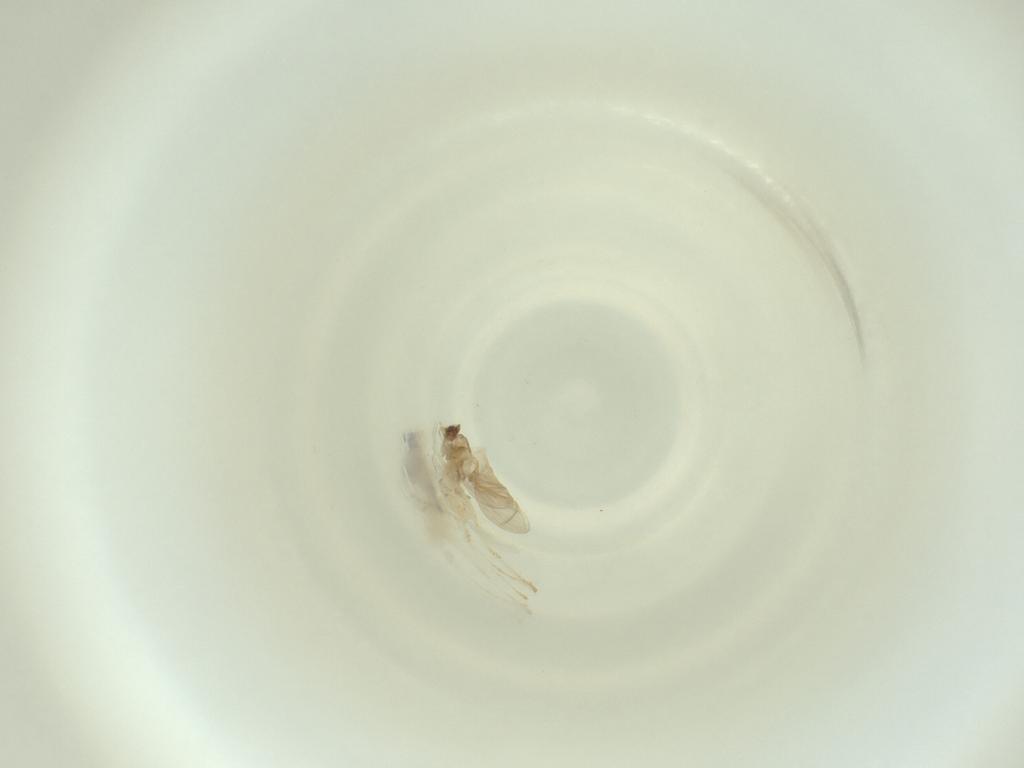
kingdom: Animalia
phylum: Arthropoda
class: Insecta
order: Diptera
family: Cecidomyiidae
